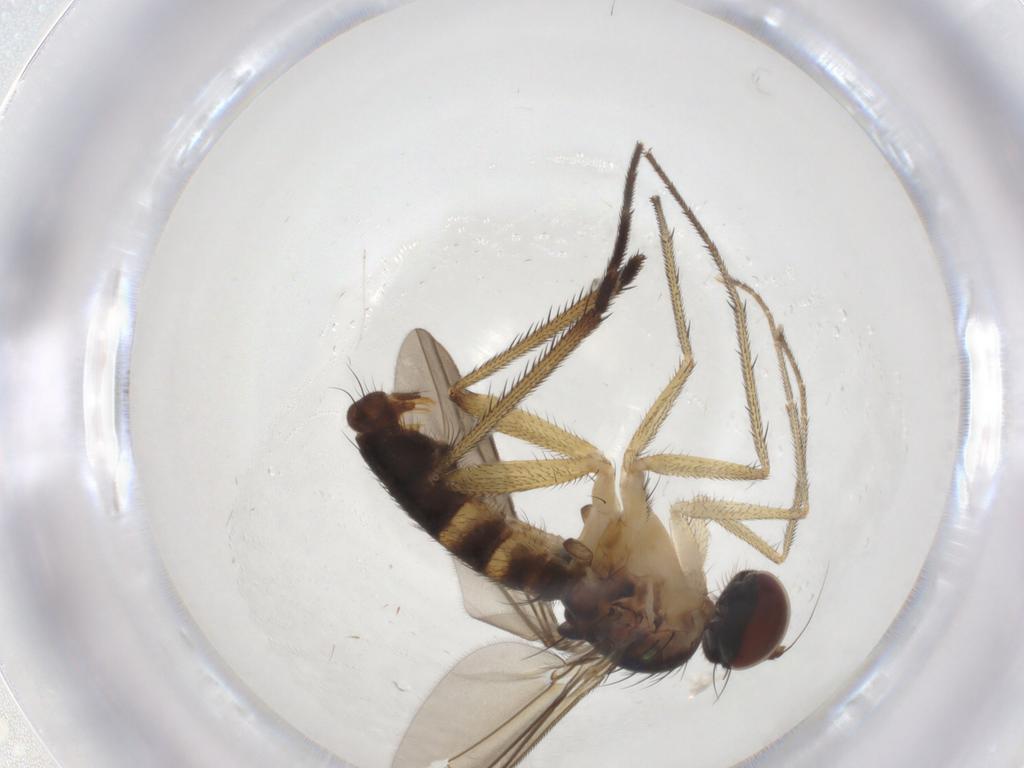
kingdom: Animalia
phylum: Arthropoda
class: Insecta
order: Diptera
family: Dolichopodidae
